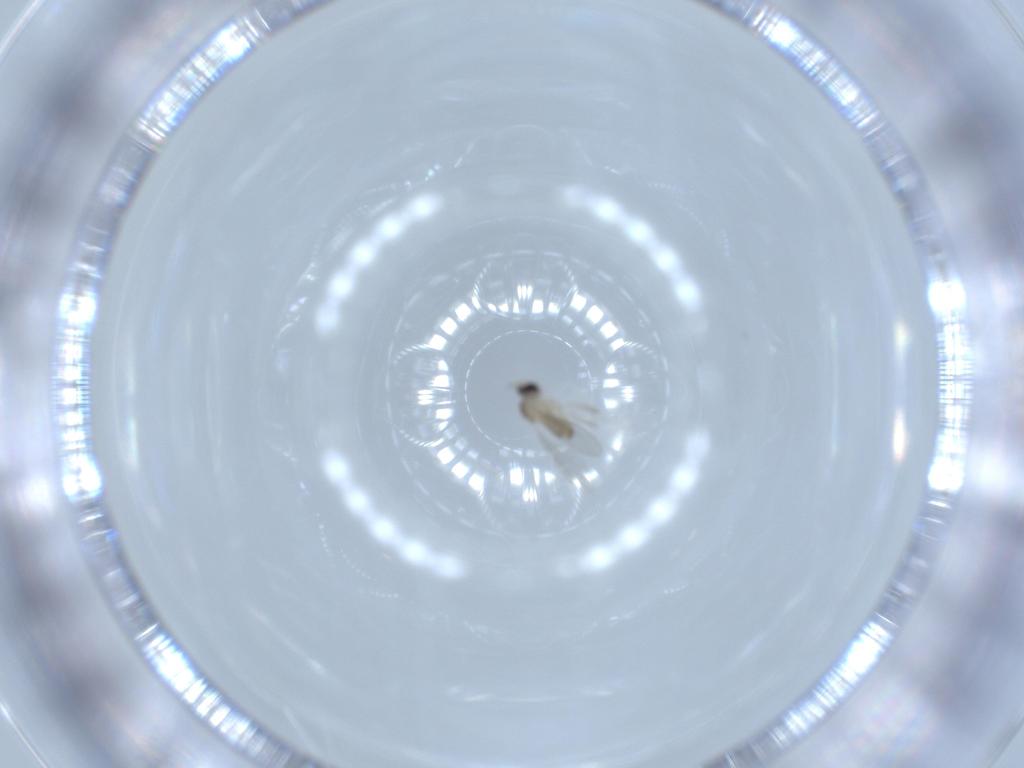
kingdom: Animalia
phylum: Arthropoda
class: Insecta
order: Diptera
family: Cecidomyiidae
